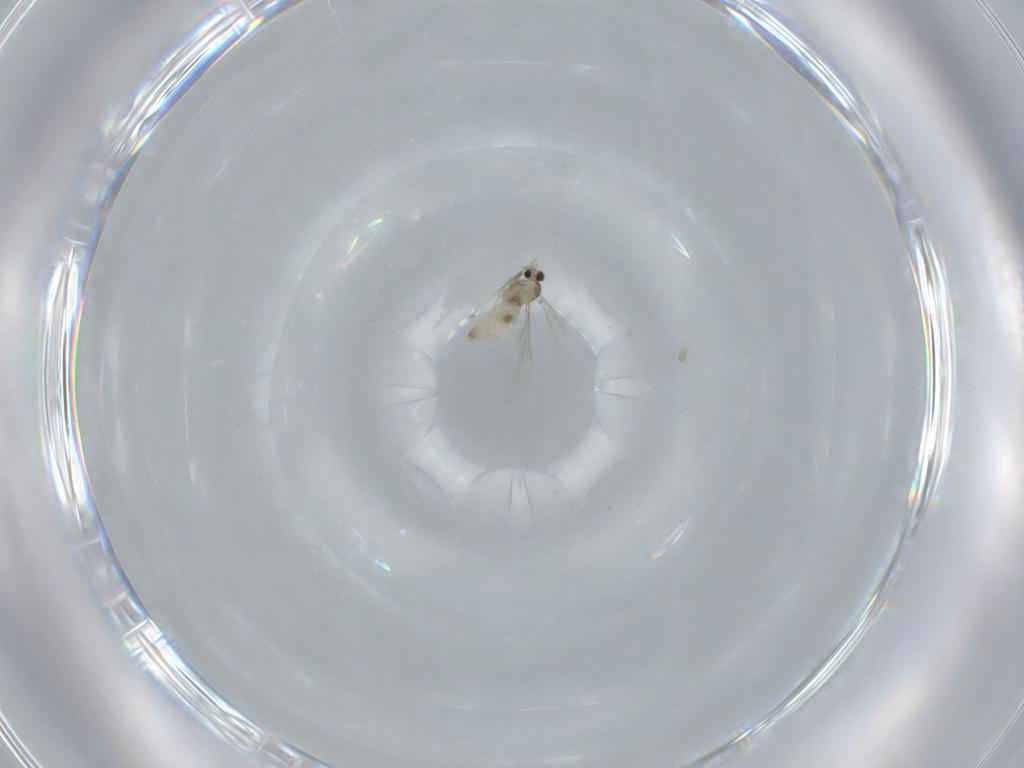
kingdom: Animalia
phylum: Arthropoda
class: Insecta
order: Diptera
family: Cecidomyiidae
